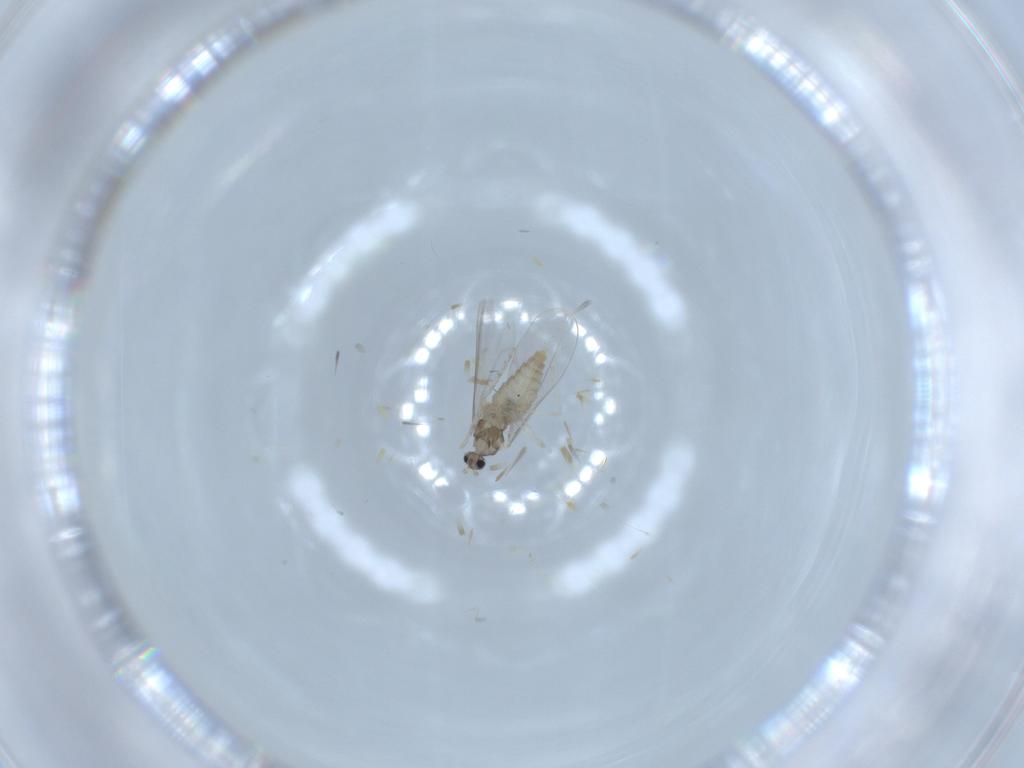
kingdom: Animalia
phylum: Arthropoda
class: Insecta
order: Diptera
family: Cecidomyiidae
